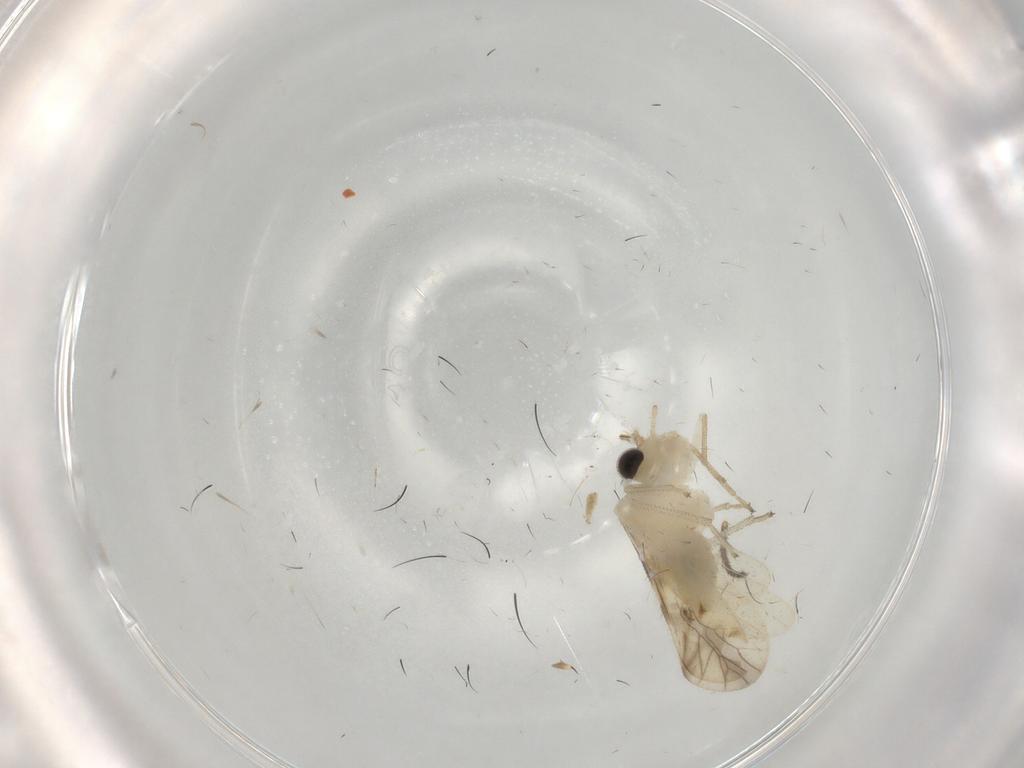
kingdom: Animalia
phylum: Arthropoda
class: Insecta
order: Psocodea
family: Caeciliusidae
